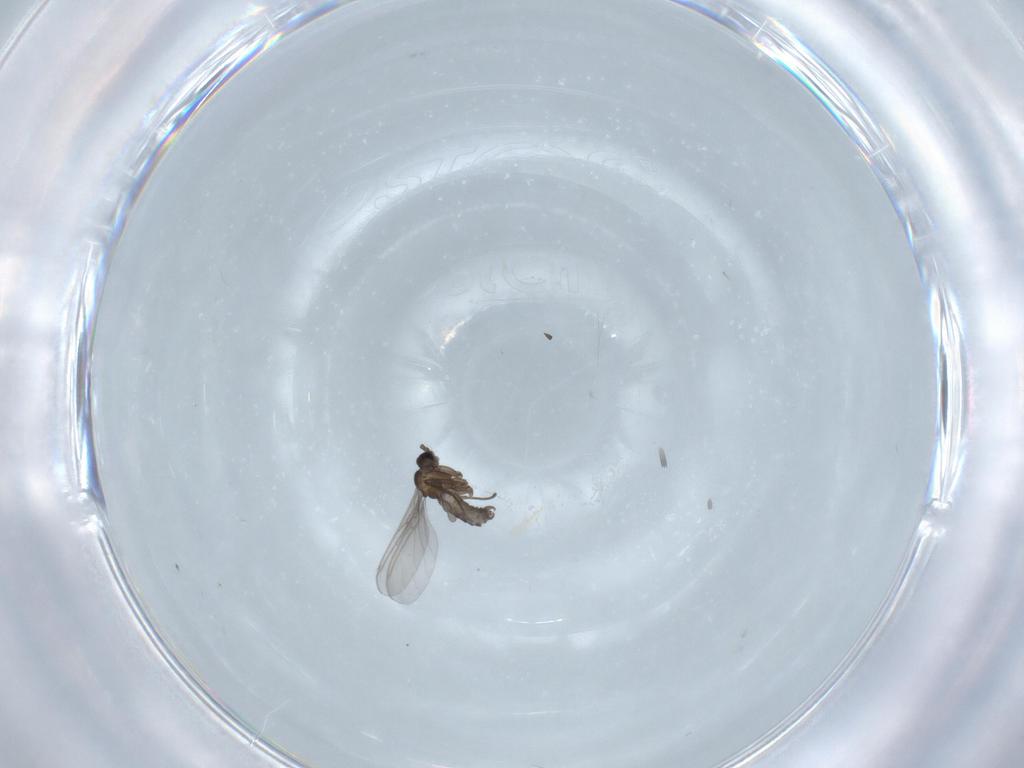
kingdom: Animalia
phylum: Arthropoda
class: Insecta
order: Diptera
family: Sciaridae
